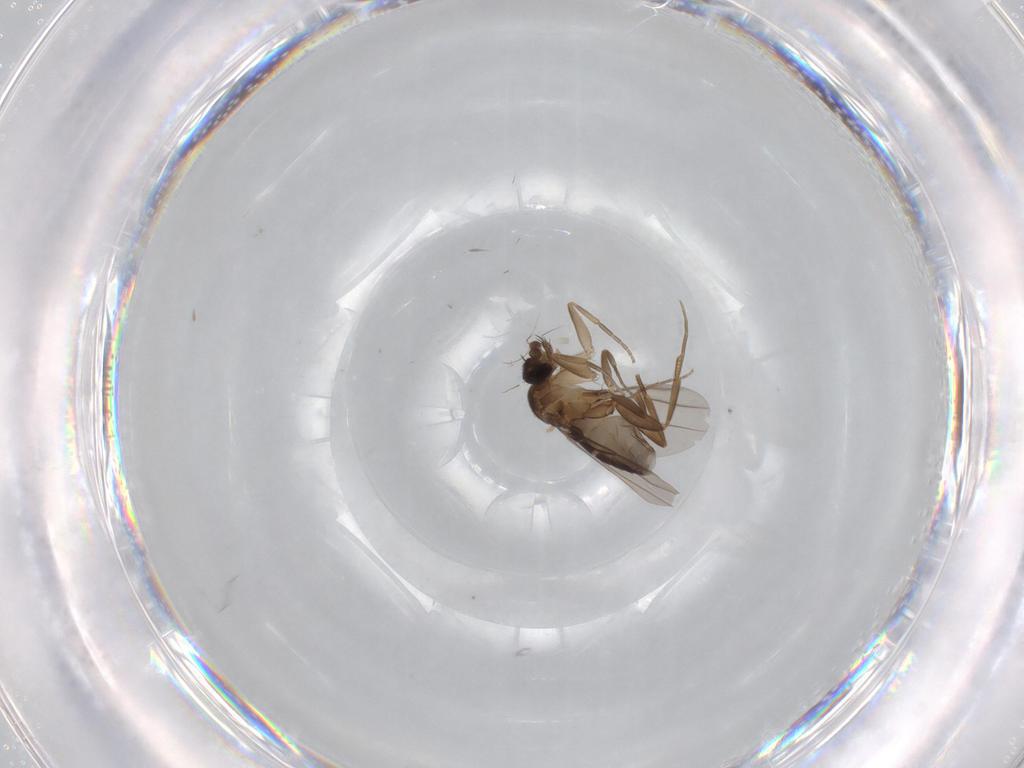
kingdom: Animalia
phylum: Arthropoda
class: Insecta
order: Diptera
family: Phoridae
